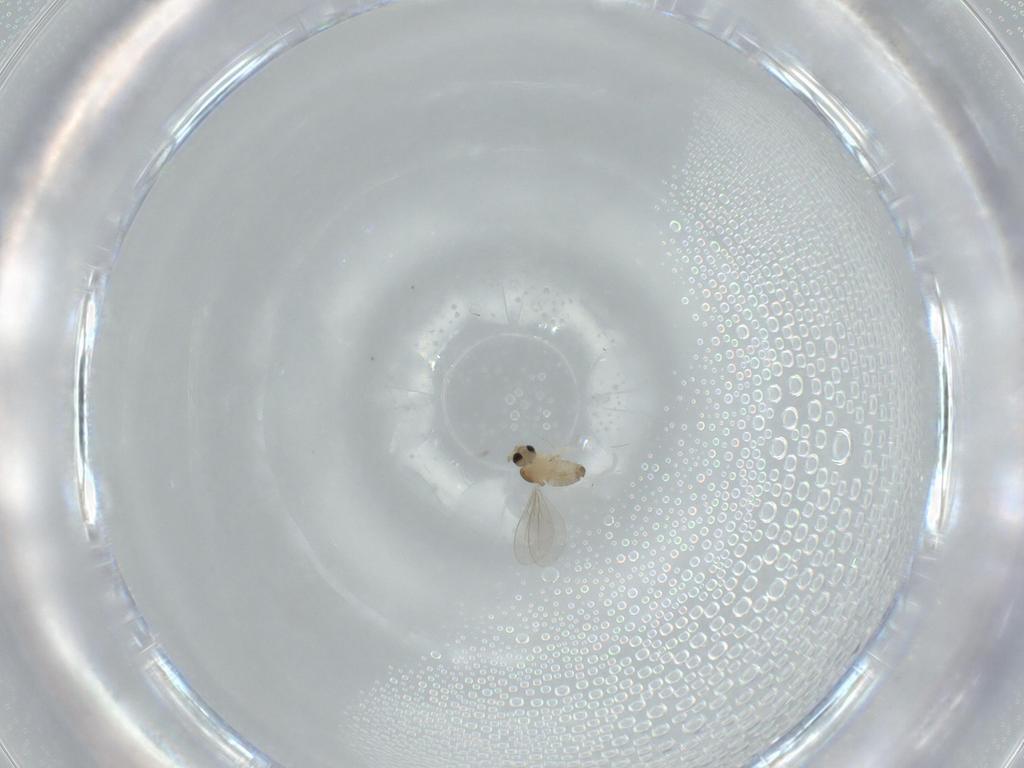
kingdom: Animalia
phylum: Arthropoda
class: Insecta
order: Diptera
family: Cecidomyiidae
